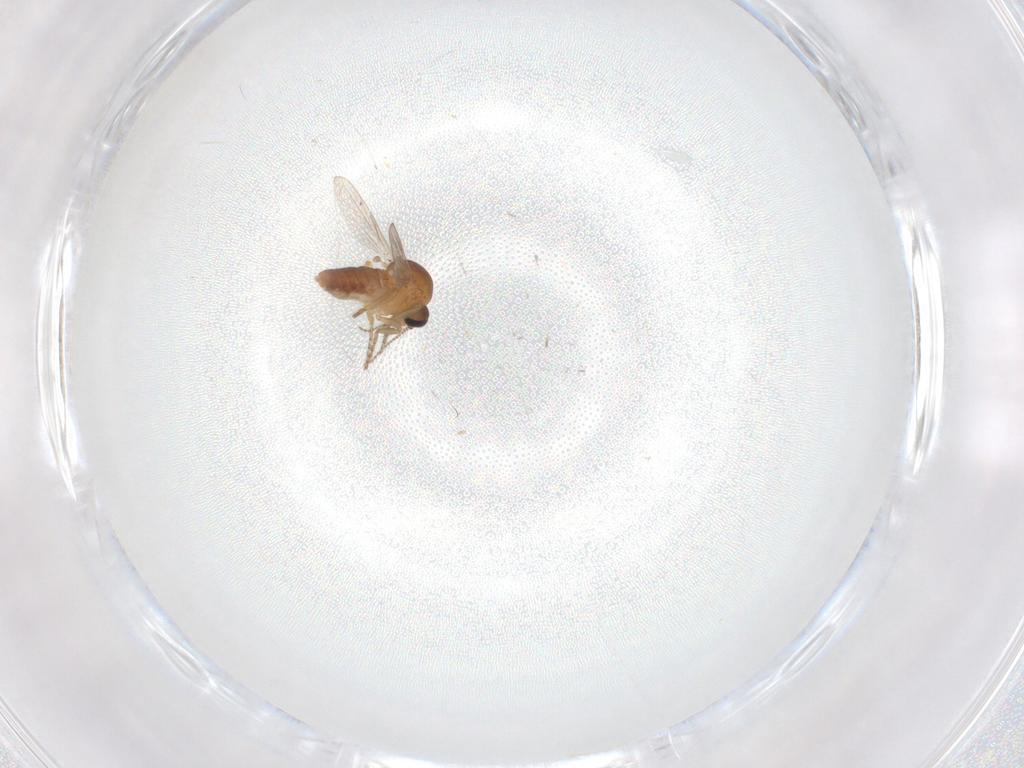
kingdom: Animalia
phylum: Arthropoda
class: Insecta
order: Diptera
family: Ceratopogonidae
